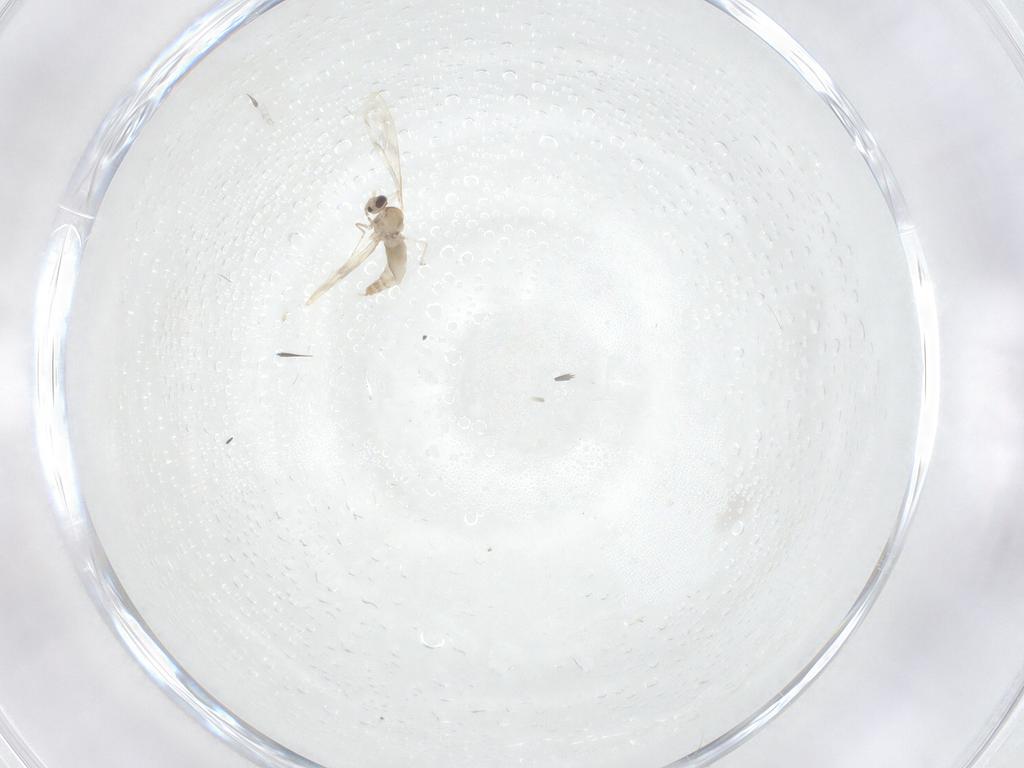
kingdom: Animalia
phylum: Arthropoda
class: Insecta
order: Diptera
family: Cecidomyiidae
